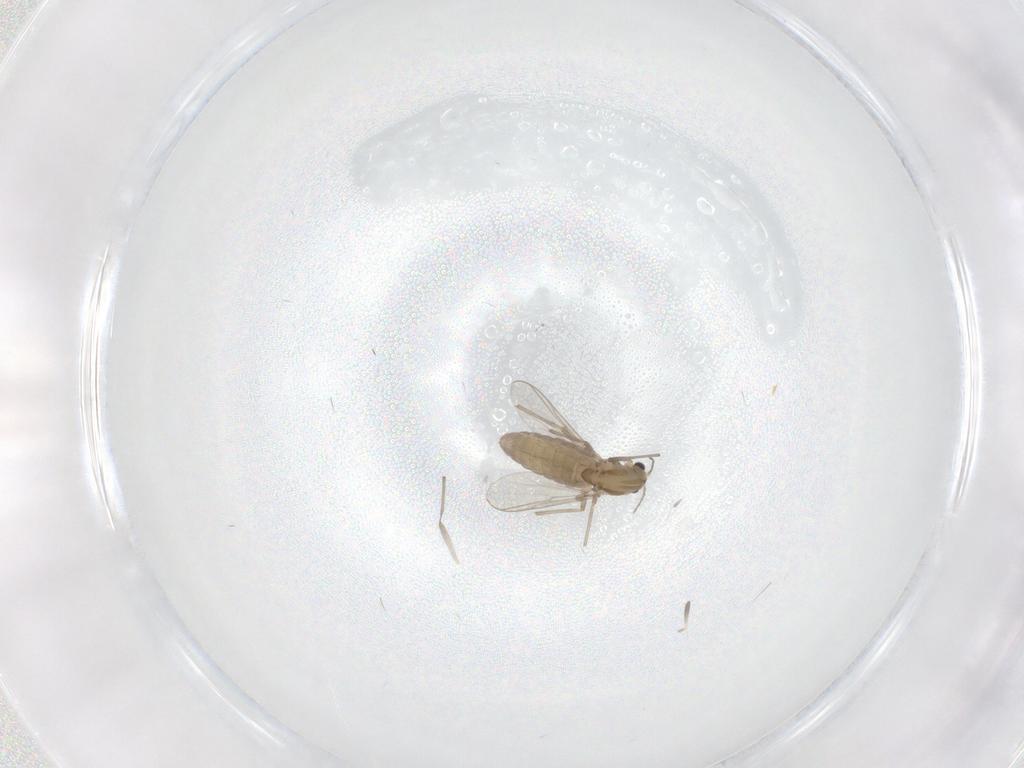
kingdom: Animalia
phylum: Arthropoda
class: Insecta
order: Diptera
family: Chironomidae
